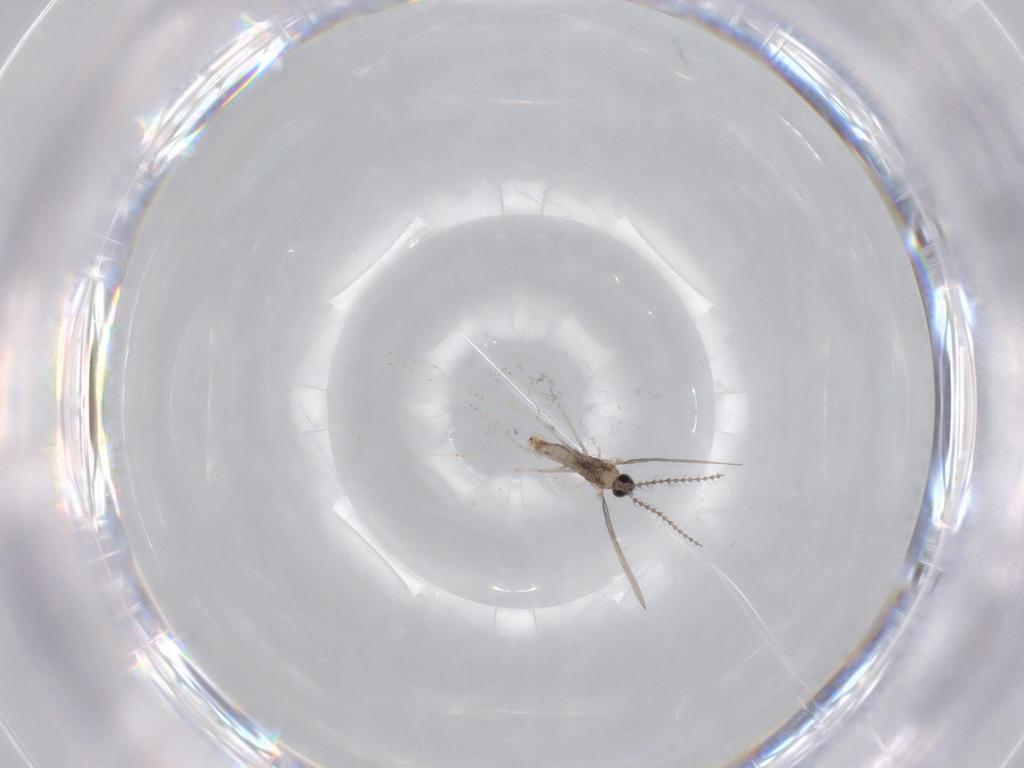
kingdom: Animalia
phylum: Arthropoda
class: Insecta
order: Diptera
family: Cecidomyiidae
